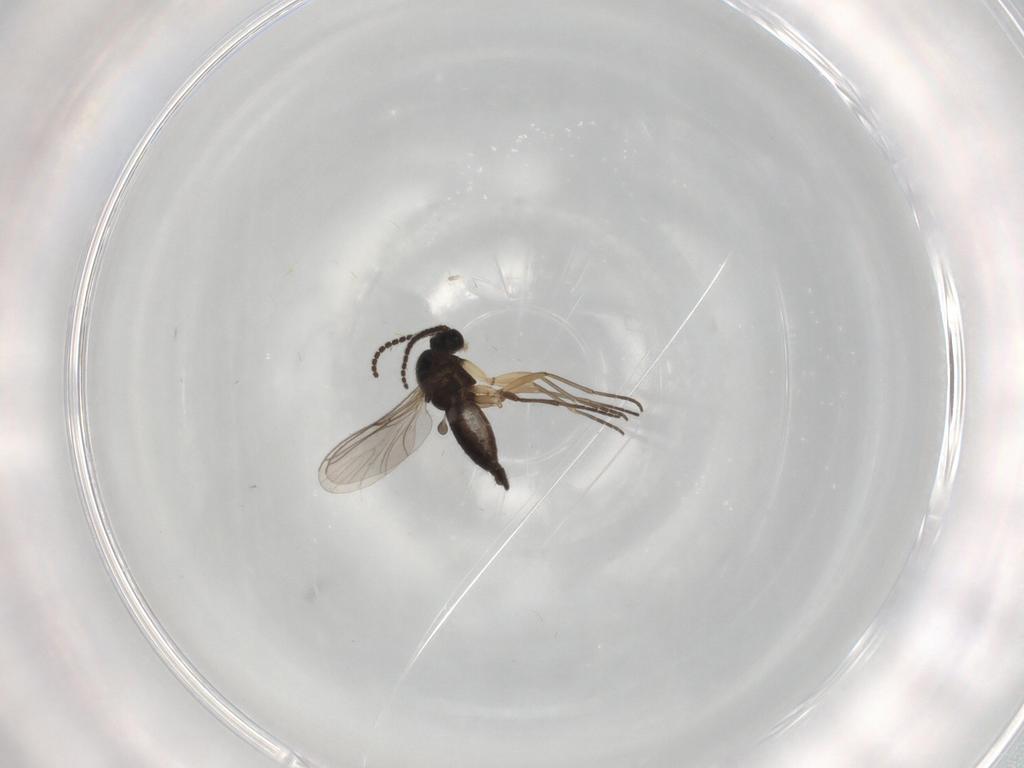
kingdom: Animalia
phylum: Arthropoda
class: Insecta
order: Diptera
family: Sciaridae
